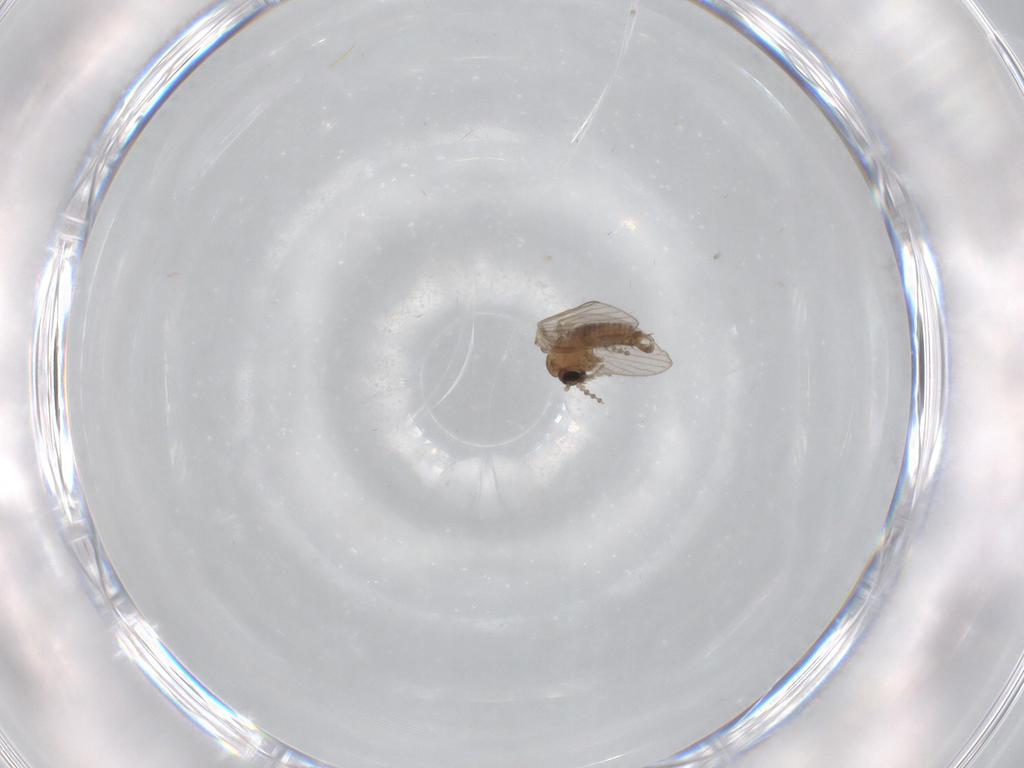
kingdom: Animalia
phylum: Arthropoda
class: Insecta
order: Diptera
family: Psychodidae
